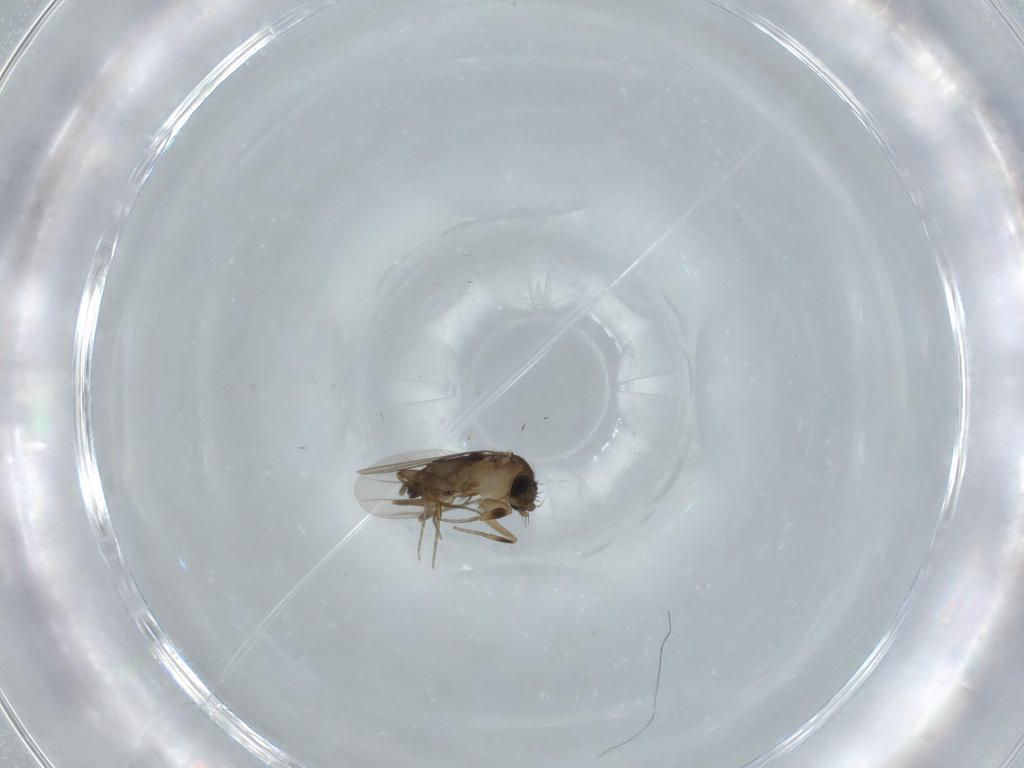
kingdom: Animalia
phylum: Arthropoda
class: Insecta
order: Diptera
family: Phoridae
